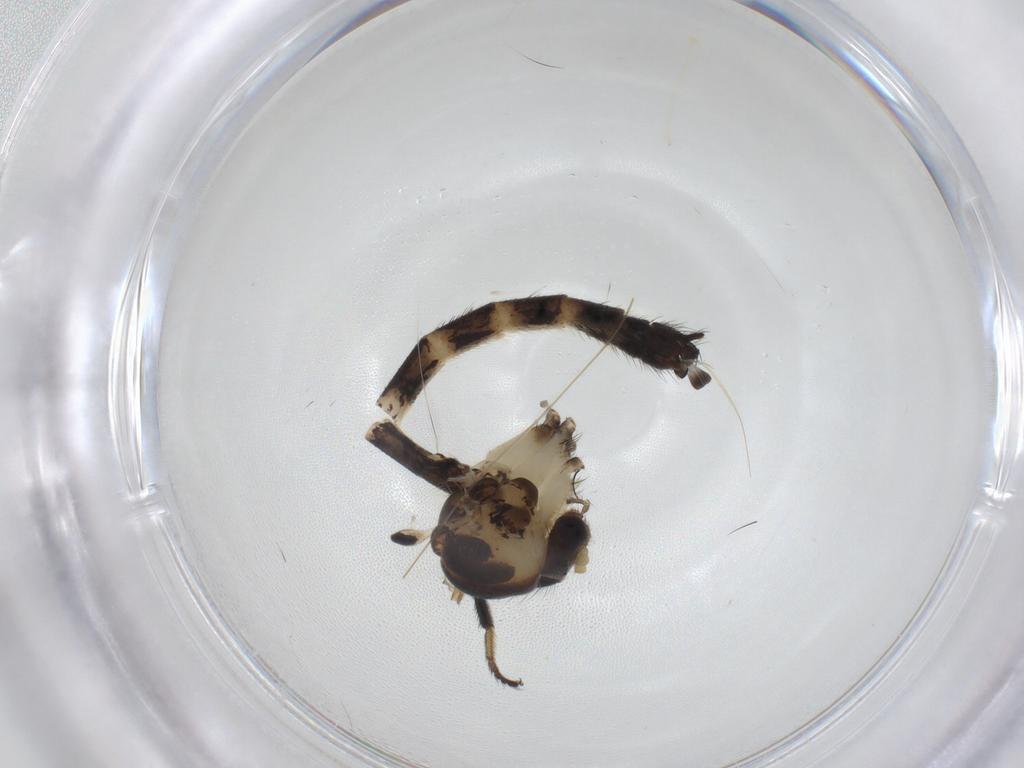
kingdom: Animalia
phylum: Arthropoda
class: Insecta
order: Diptera
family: Mycetophilidae
